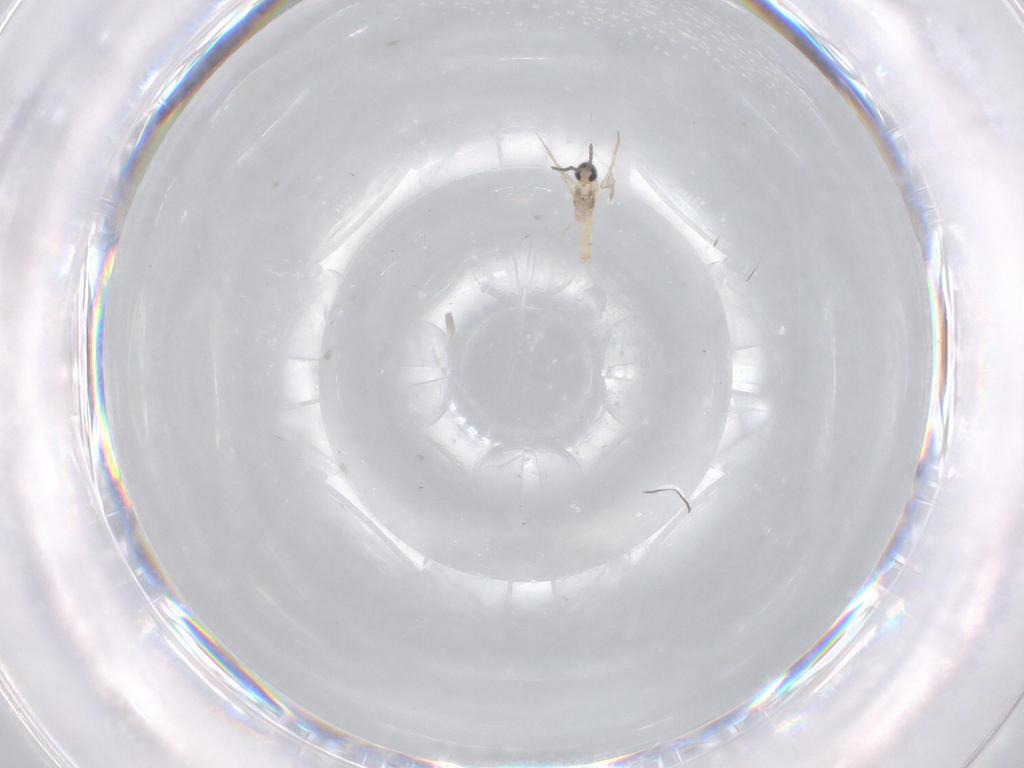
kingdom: Animalia
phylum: Arthropoda
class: Insecta
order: Diptera
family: Cecidomyiidae
